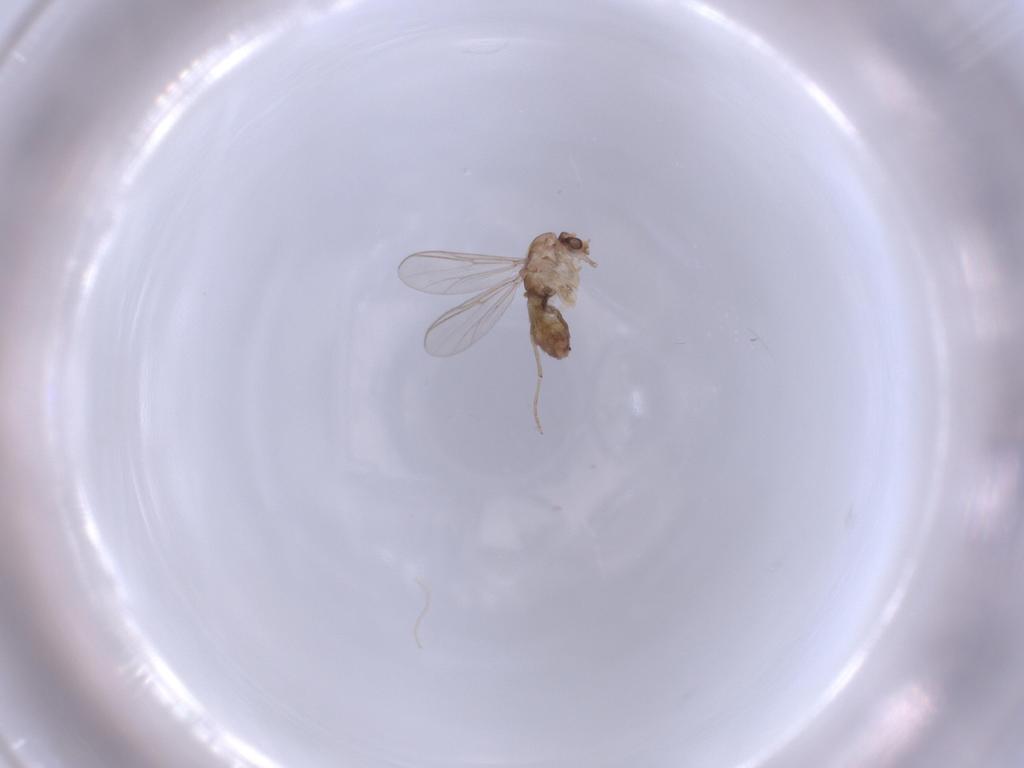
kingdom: Animalia
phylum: Arthropoda
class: Insecta
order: Diptera
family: Chironomidae
